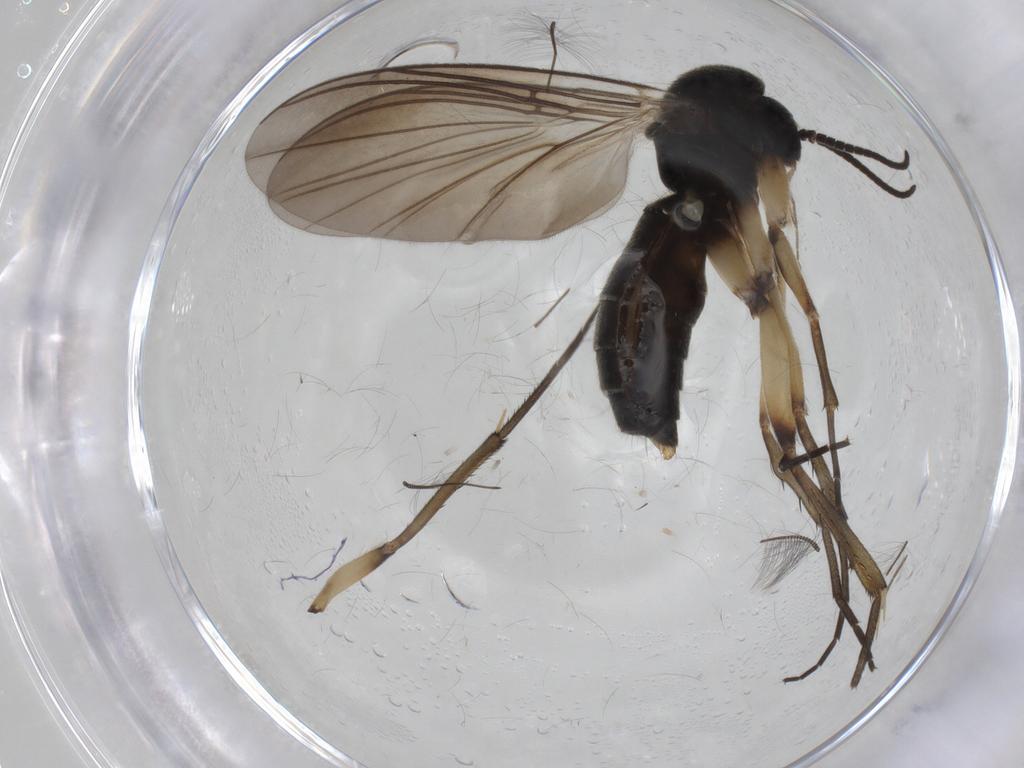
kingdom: Animalia
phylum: Arthropoda
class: Insecta
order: Diptera
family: Mycetophilidae
